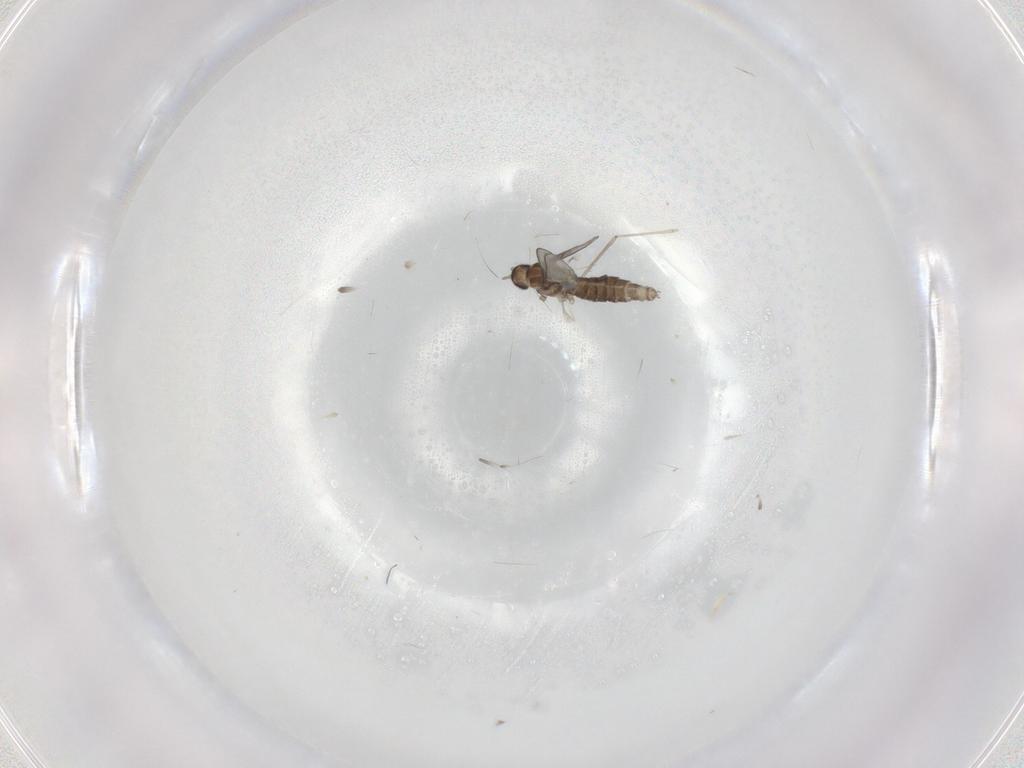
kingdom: Animalia
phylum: Arthropoda
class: Insecta
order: Diptera
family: Cecidomyiidae
